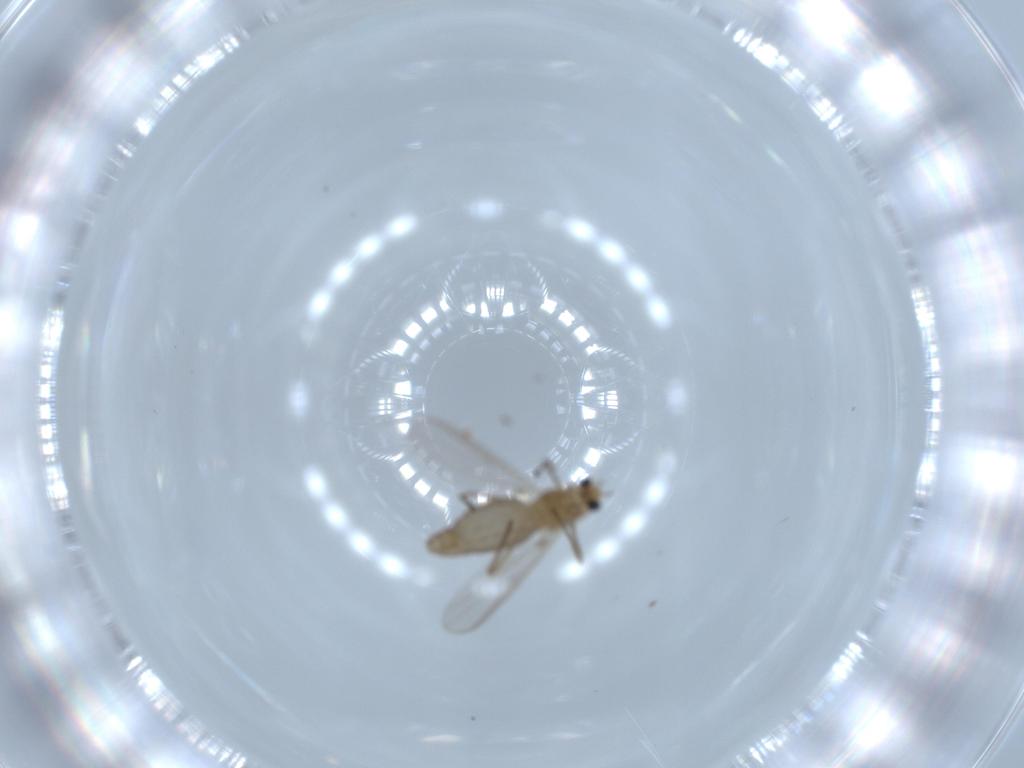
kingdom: Animalia
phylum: Arthropoda
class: Insecta
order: Diptera
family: Chironomidae
